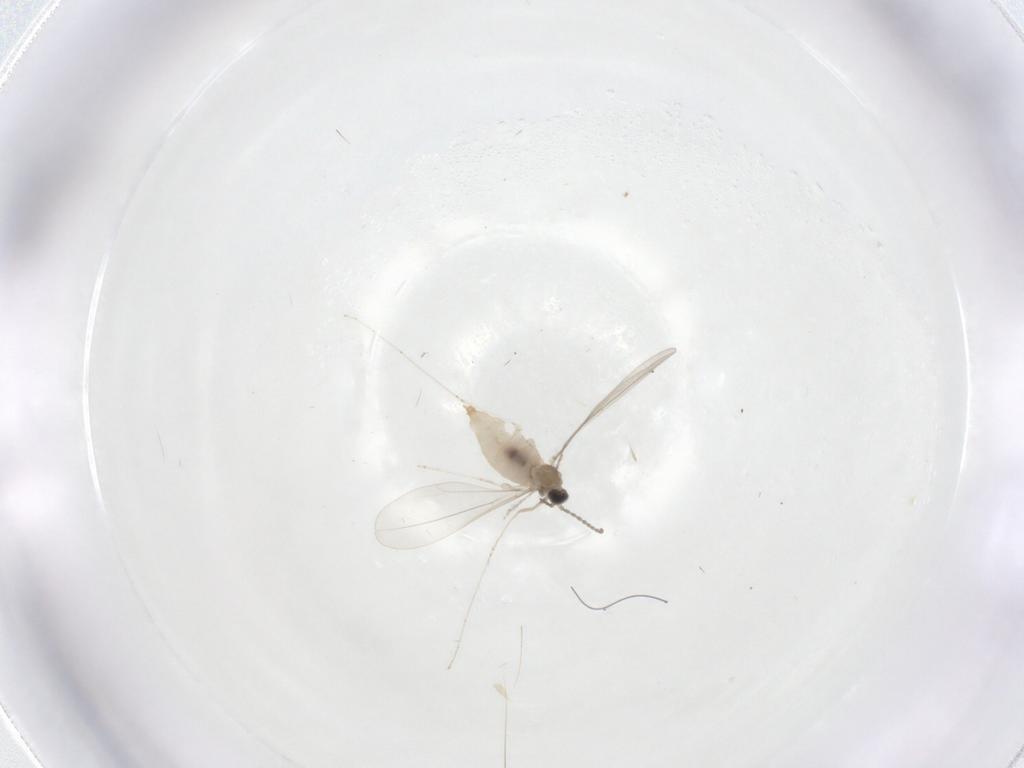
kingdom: Animalia
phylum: Arthropoda
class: Insecta
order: Diptera
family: Cecidomyiidae
